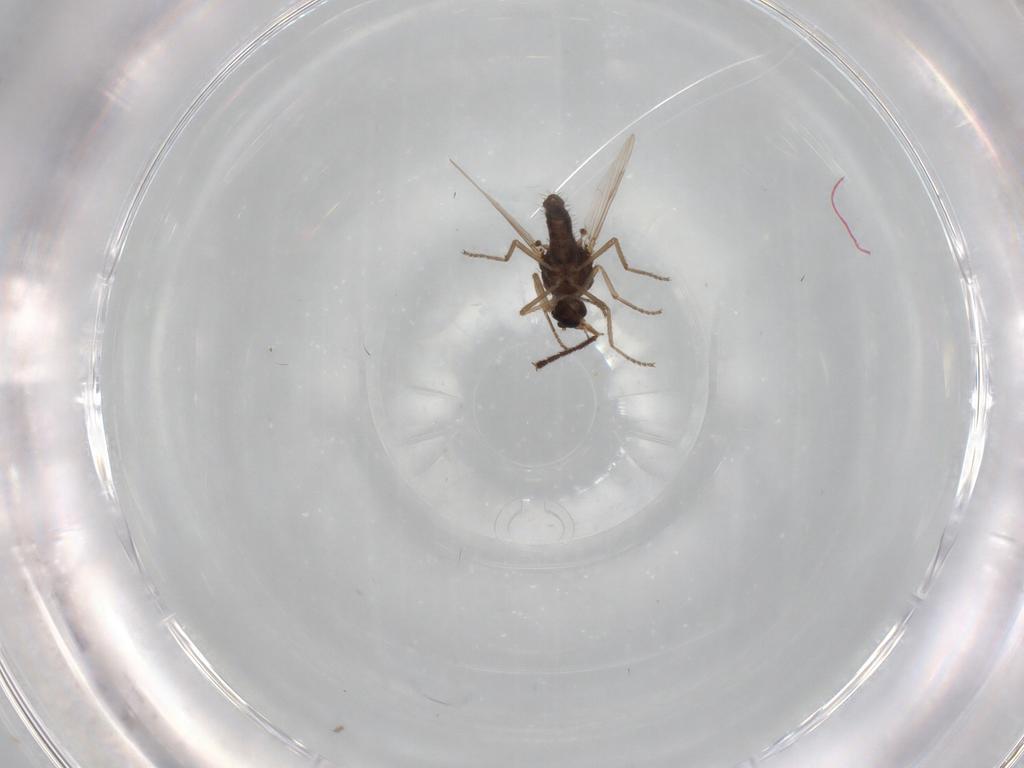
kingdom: Animalia
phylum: Arthropoda
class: Insecta
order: Diptera
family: Ceratopogonidae
